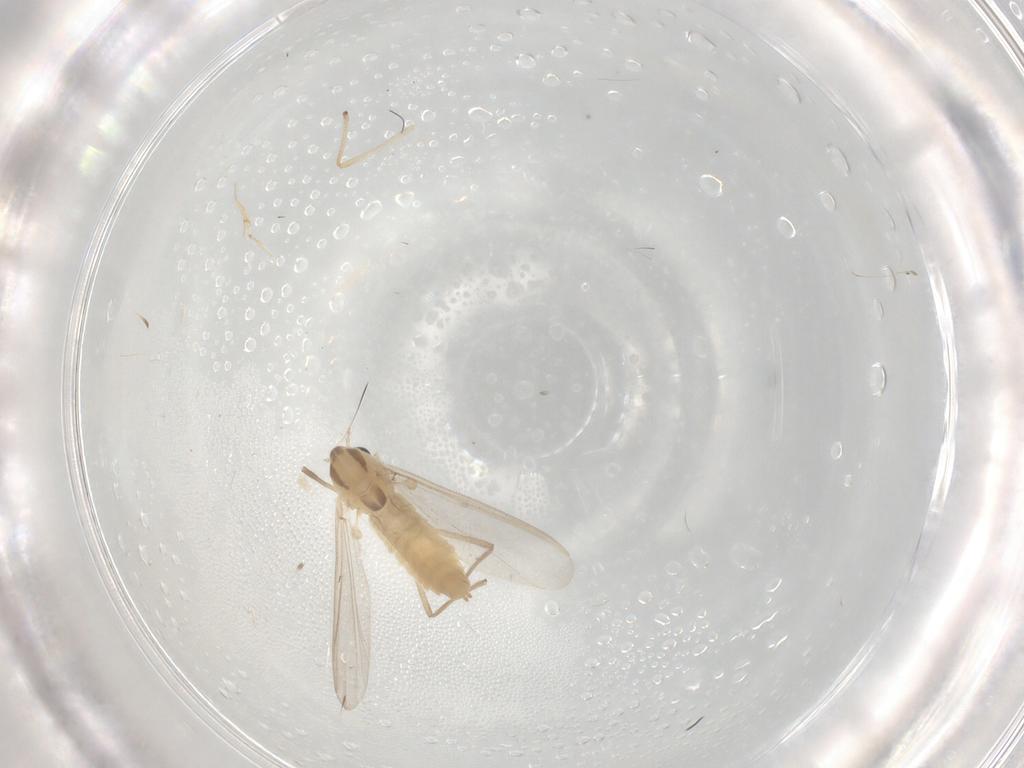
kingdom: Animalia
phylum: Arthropoda
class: Insecta
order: Diptera
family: Chironomidae
